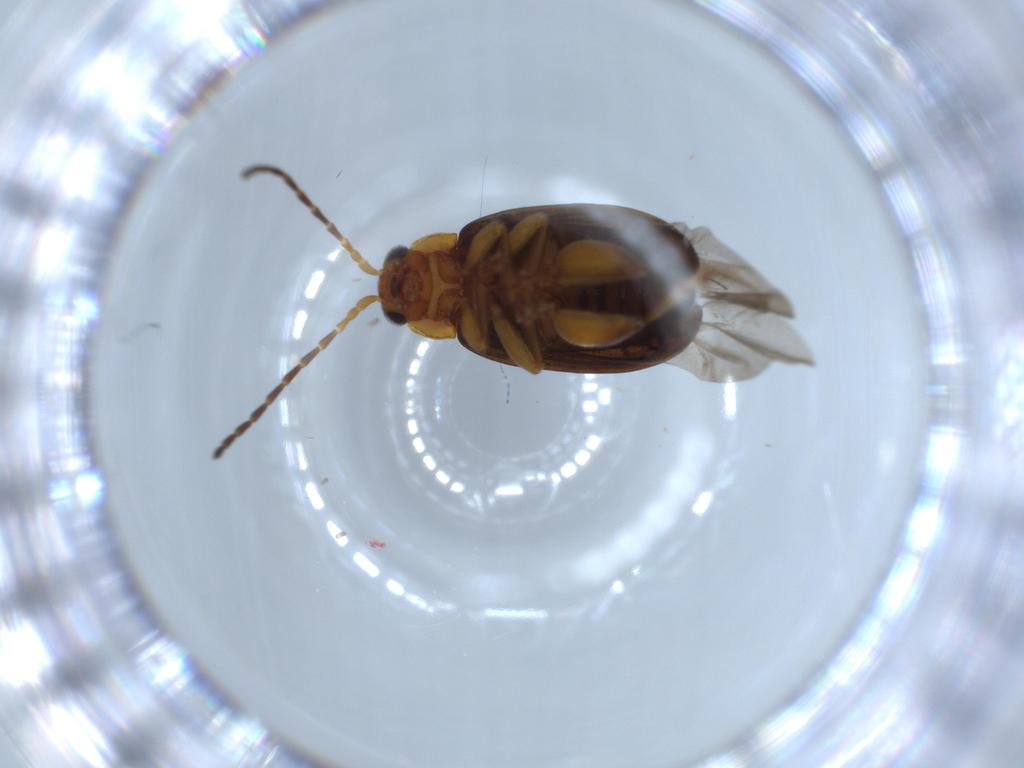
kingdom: Animalia
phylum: Arthropoda
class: Insecta
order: Coleoptera
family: Chrysomelidae
